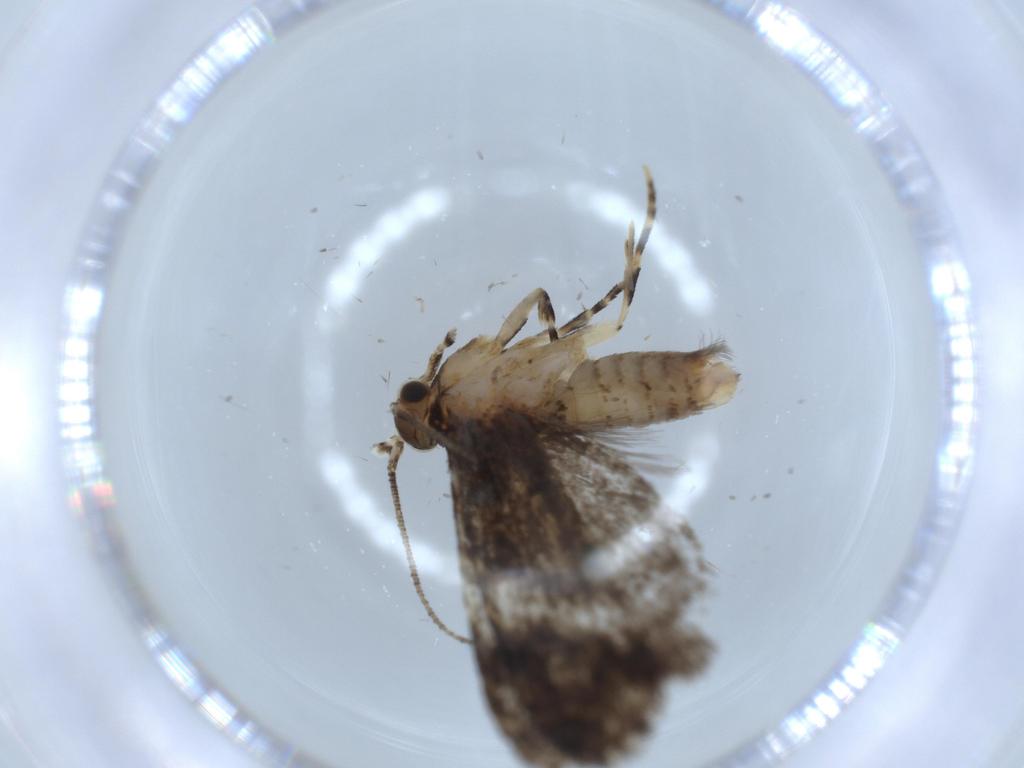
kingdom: Animalia
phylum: Arthropoda
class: Insecta
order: Lepidoptera
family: Tineidae
